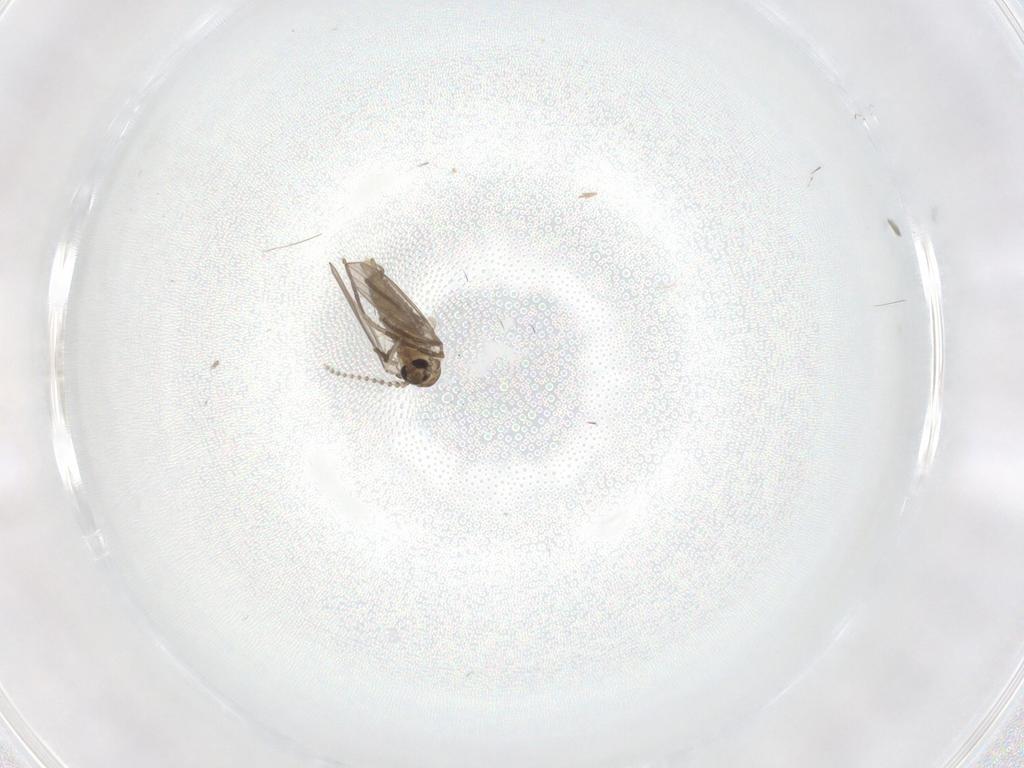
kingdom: Animalia
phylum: Arthropoda
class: Insecta
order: Diptera
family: Psychodidae
